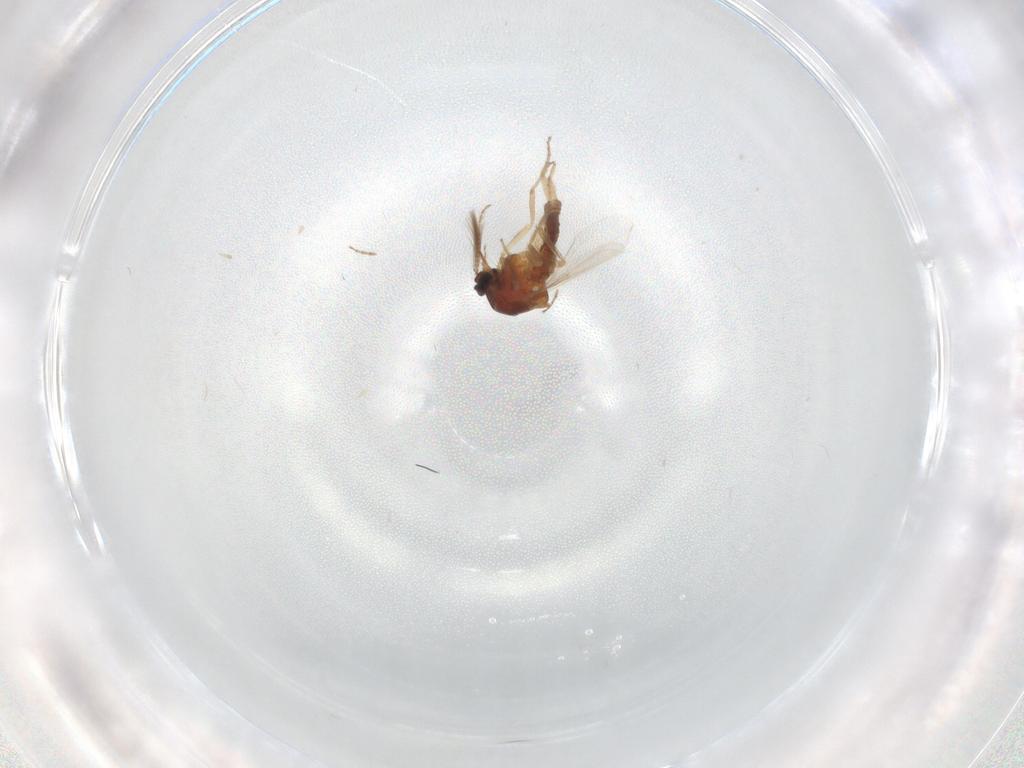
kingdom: Animalia
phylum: Arthropoda
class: Insecta
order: Diptera
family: Ceratopogonidae
